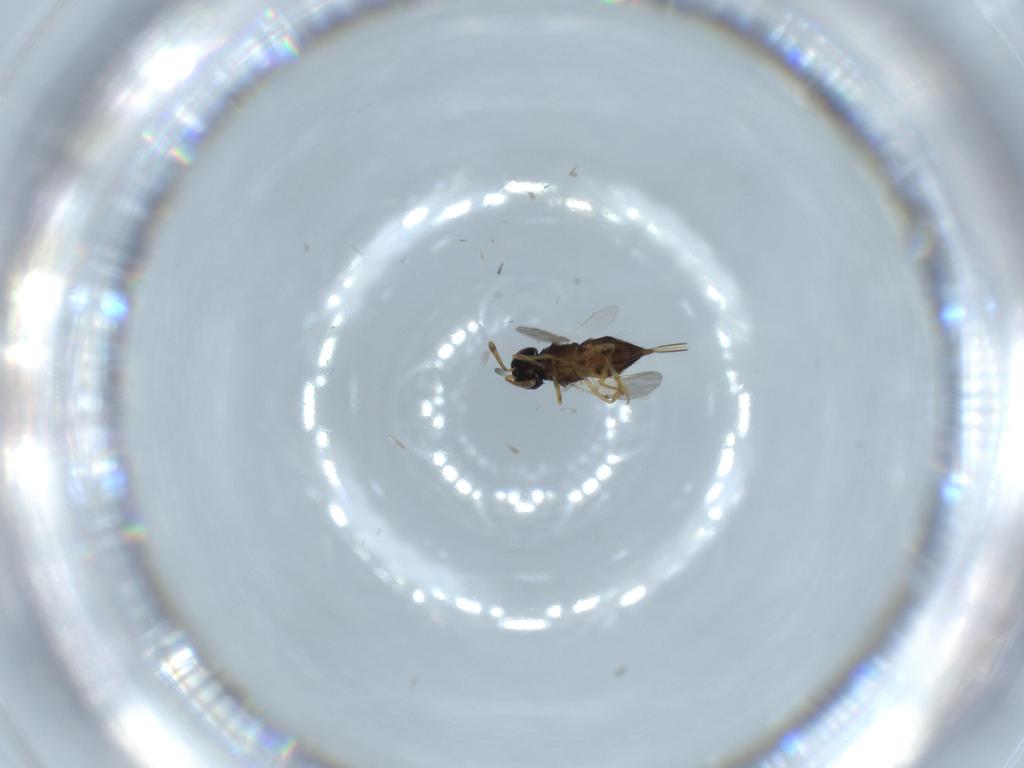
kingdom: Animalia
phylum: Arthropoda
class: Insecta
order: Hymenoptera
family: Encyrtidae
